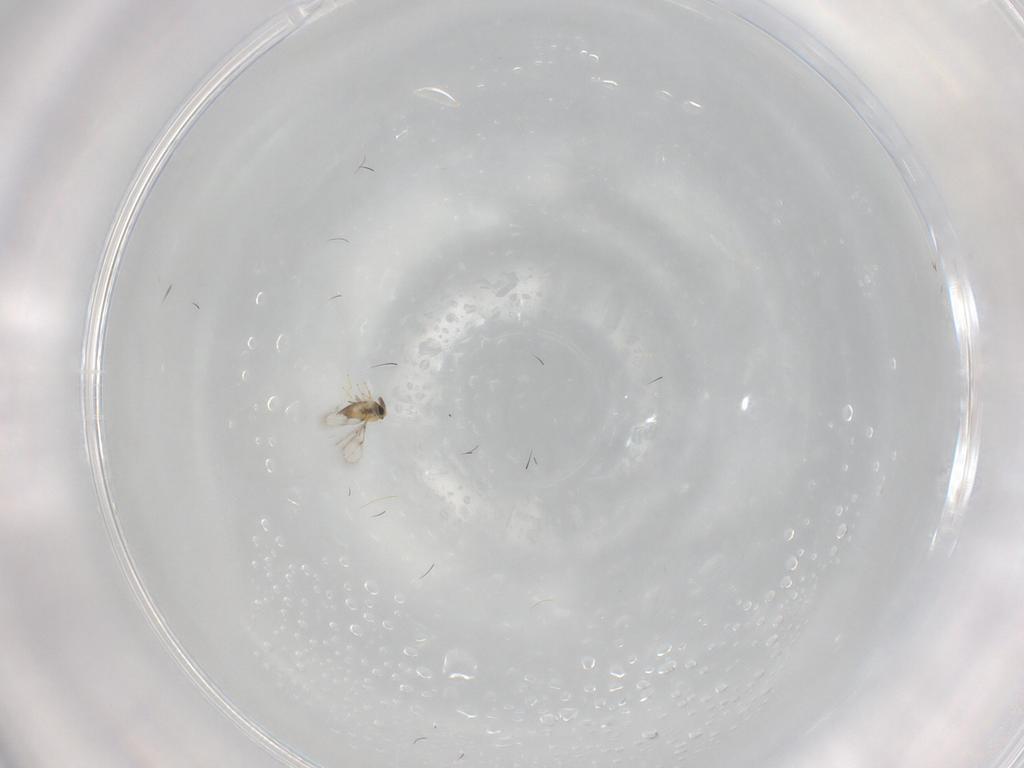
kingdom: Animalia
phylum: Arthropoda
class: Insecta
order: Hymenoptera
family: Trichogrammatidae
